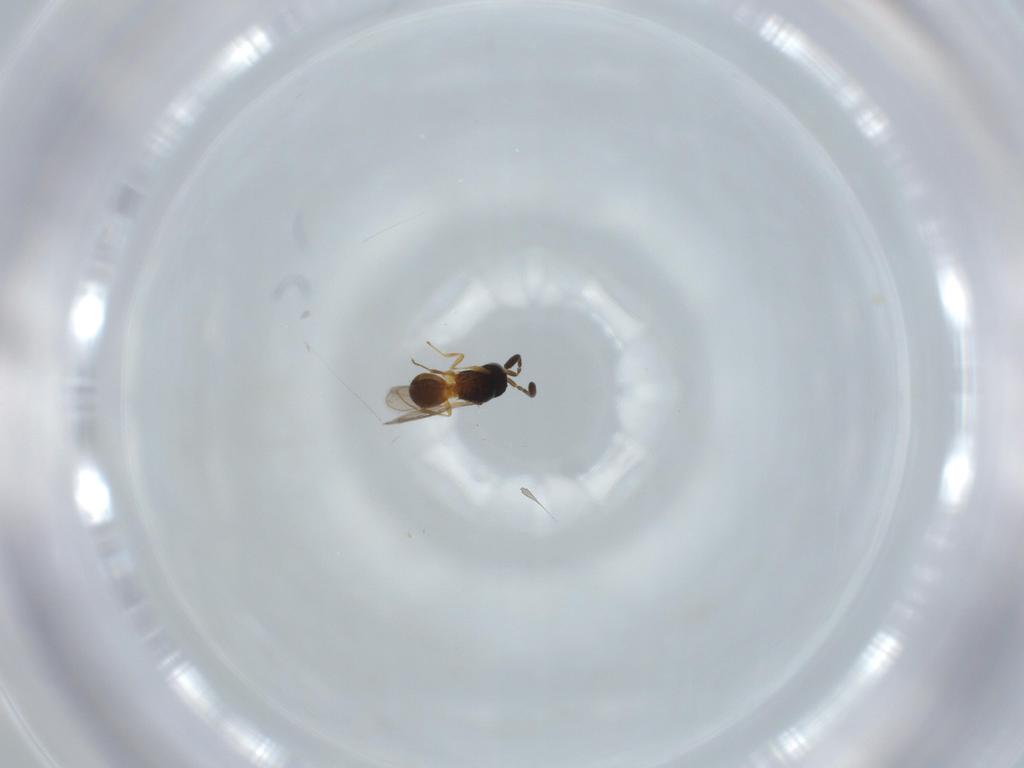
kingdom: Animalia
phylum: Arthropoda
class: Insecta
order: Hymenoptera
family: Scelionidae
